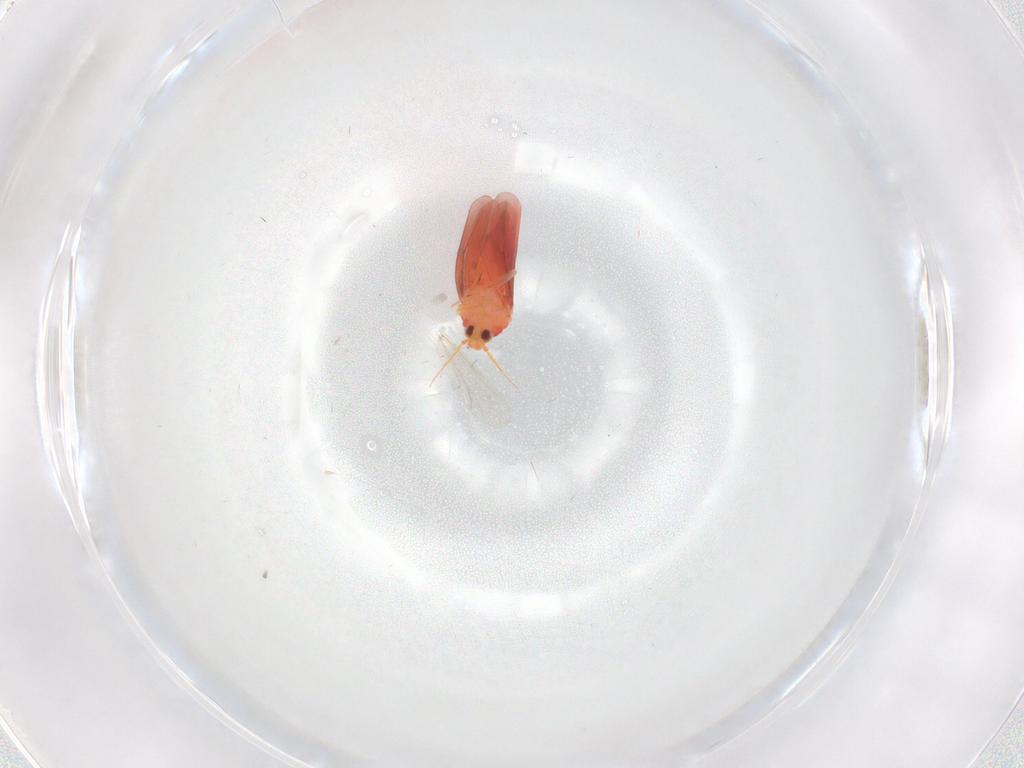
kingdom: Animalia
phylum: Arthropoda
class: Insecta
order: Hemiptera
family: Aleyrodidae
